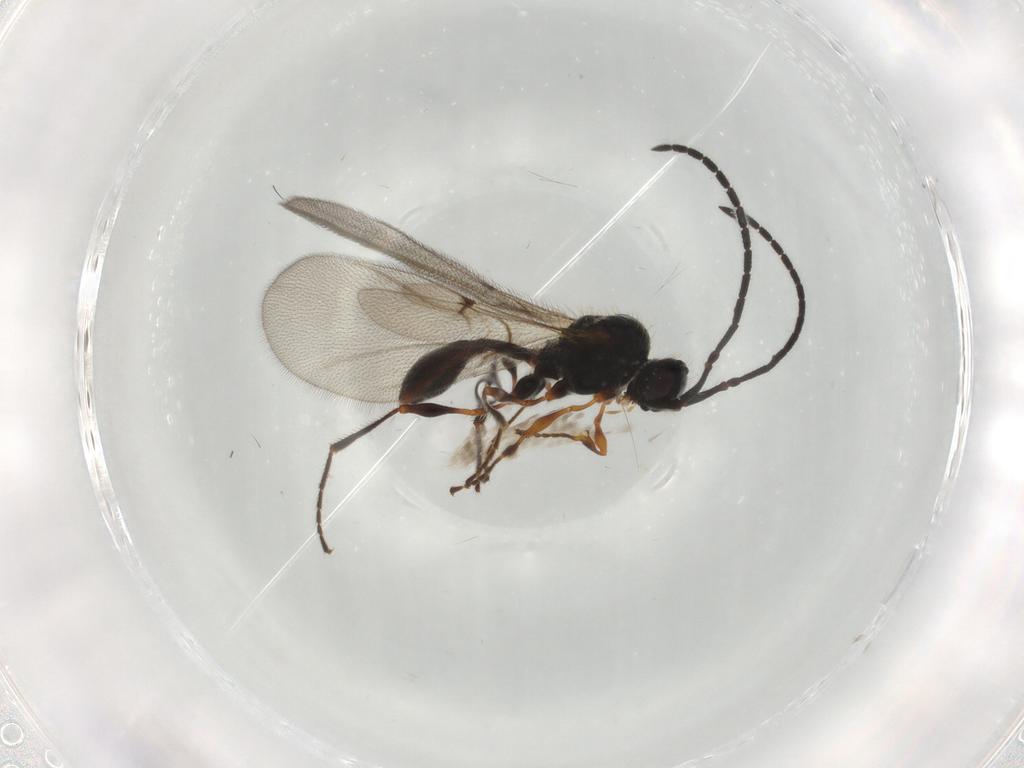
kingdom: Animalia
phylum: Arthropoda
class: Insecta
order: Hymenoptera
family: Diapriidae
